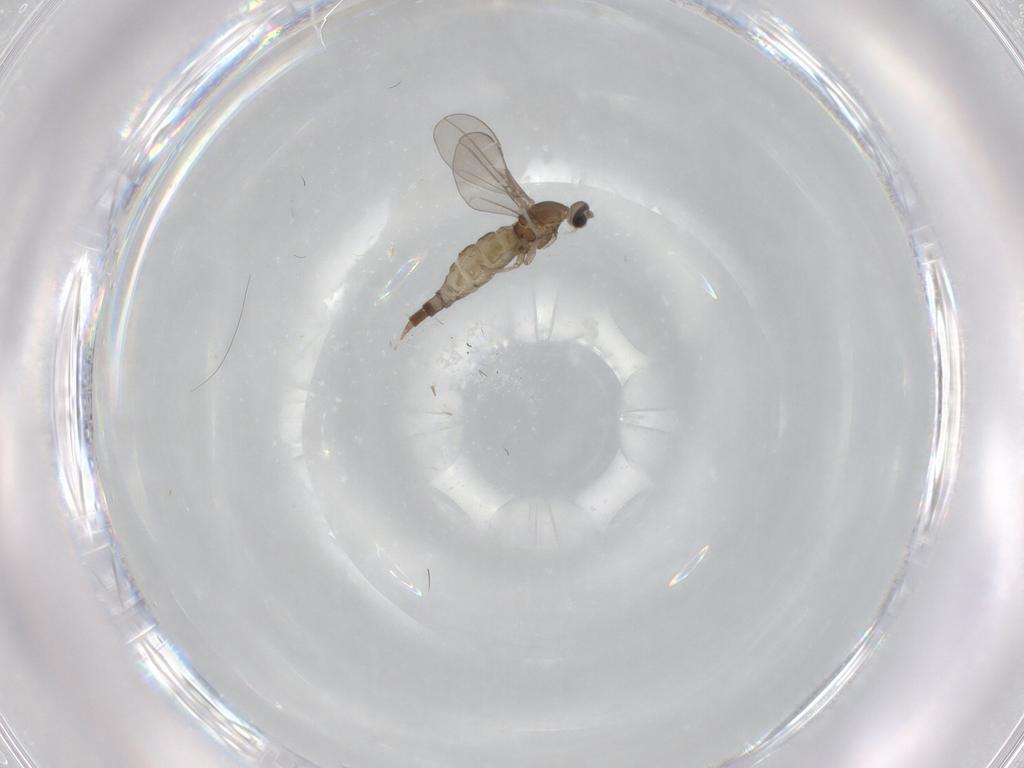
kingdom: Animalia
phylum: Arthropoda
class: Insecta
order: Diptera
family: Cecidomyiidae
